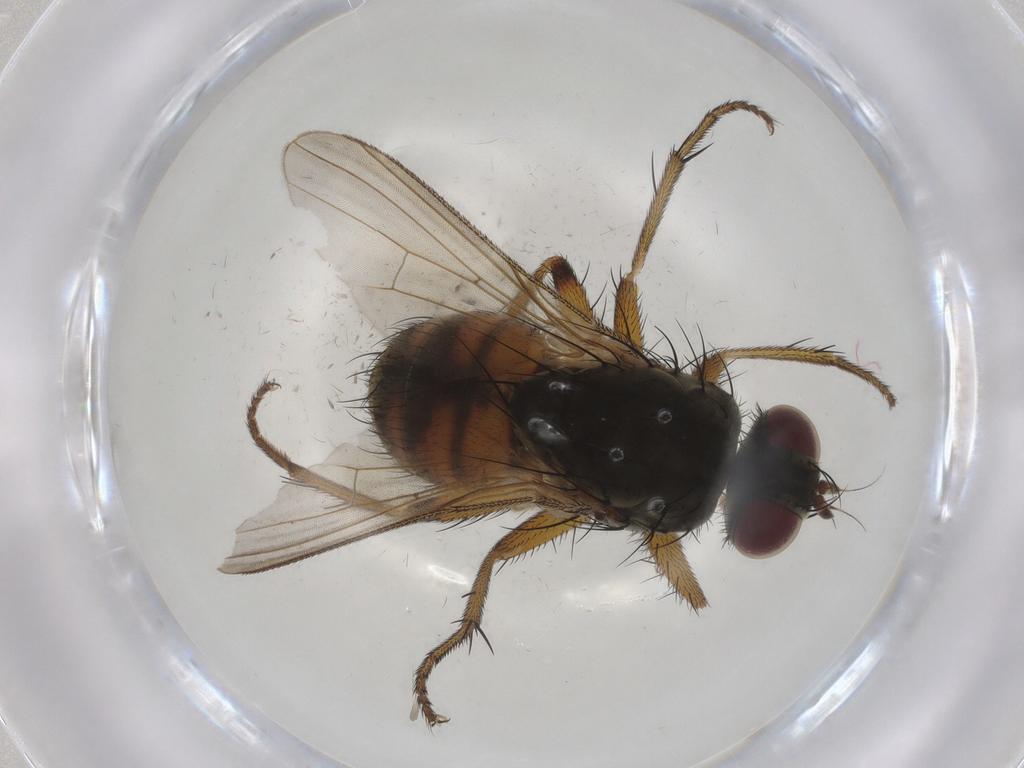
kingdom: Animalia
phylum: Arthropoda
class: Insecta
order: Diptera
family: Muscidae
